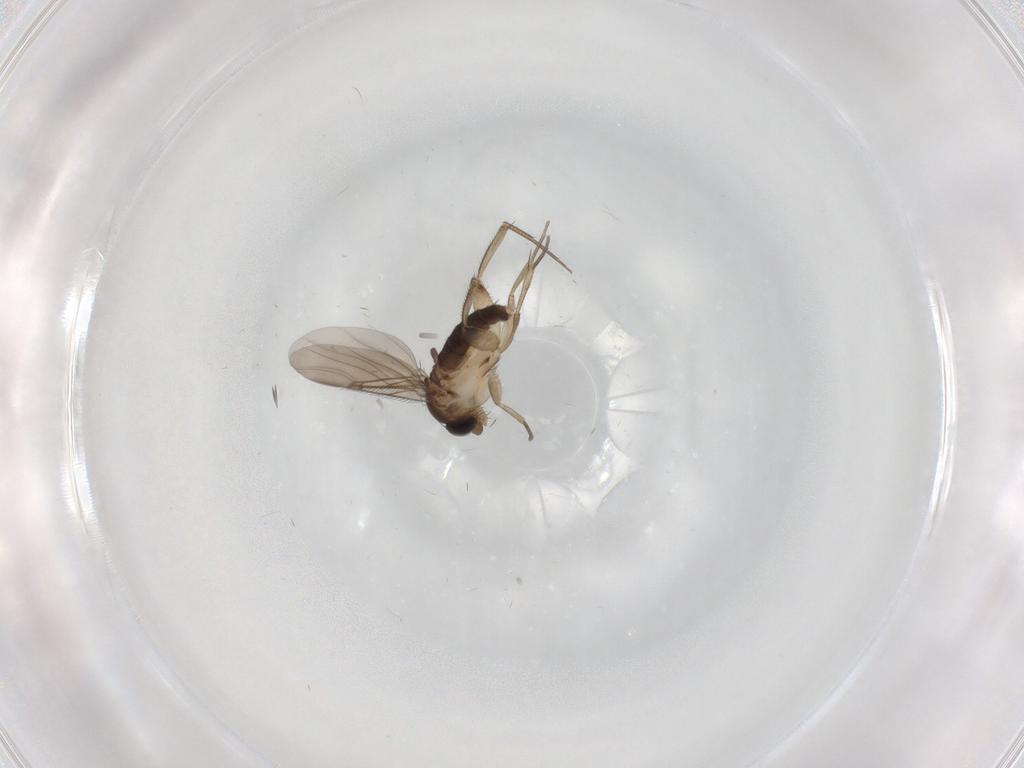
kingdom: Animalia
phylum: Arthropoda
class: Insecta
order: Diptera
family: Phoridae
